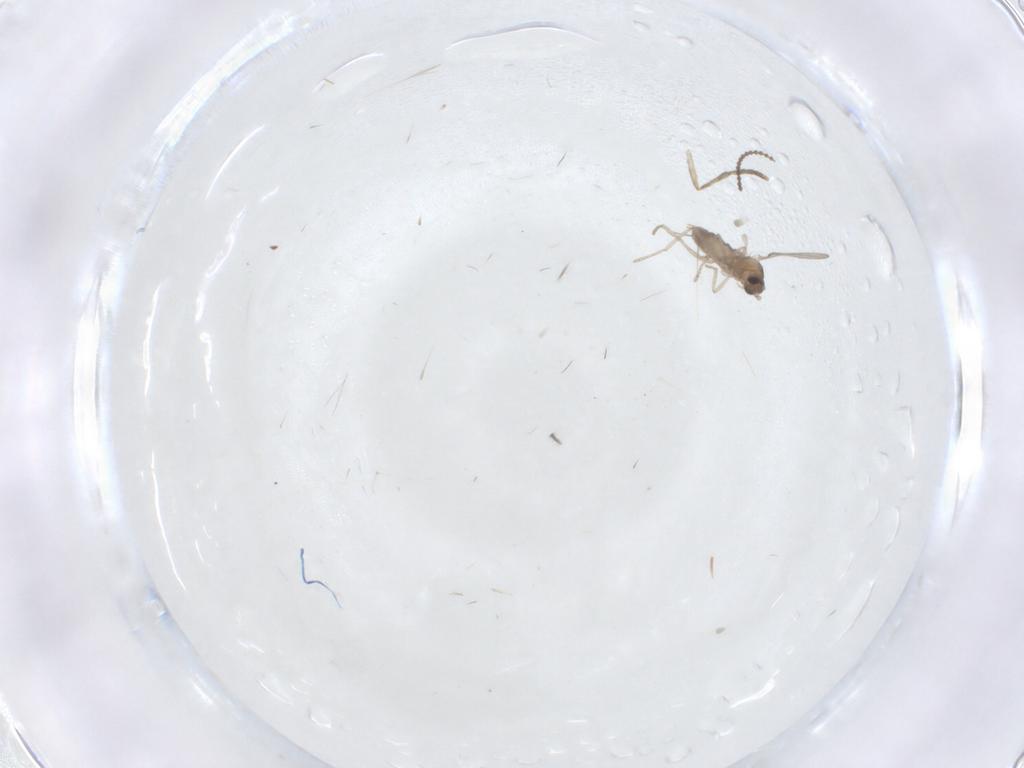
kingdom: Animalia
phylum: Arthropoda
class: Insecta
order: Diptera
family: Cecidomyiidae
